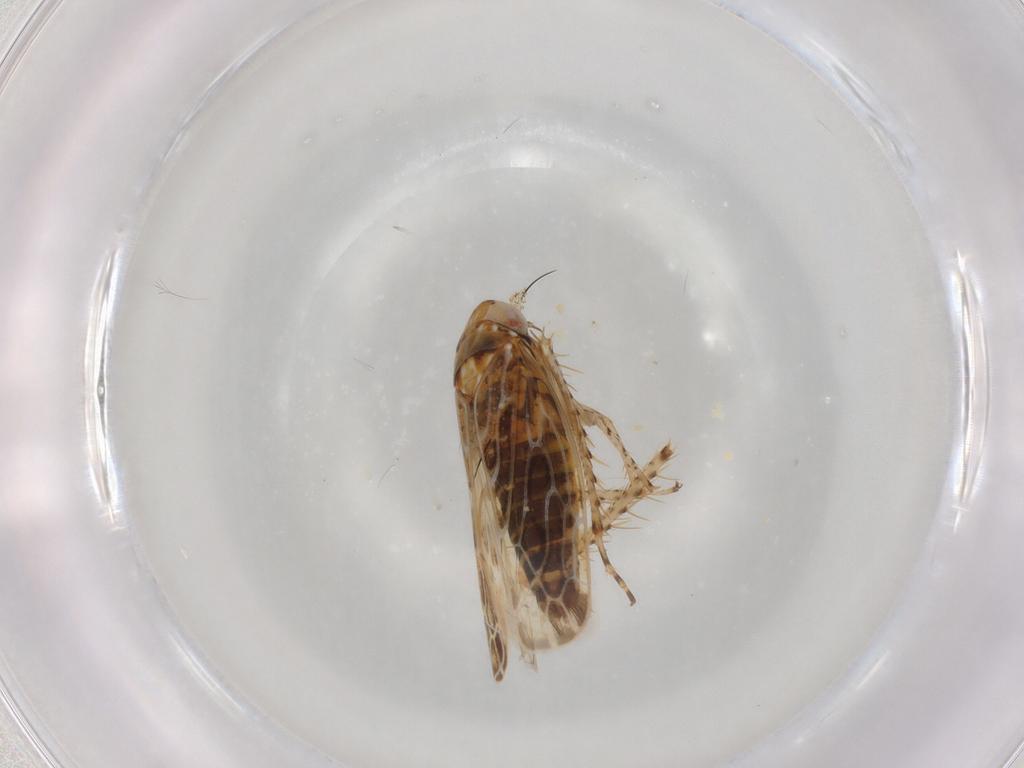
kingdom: Animalia
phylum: Arthropoda
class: Insecta
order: Hemiptera
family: Cicadellidae
